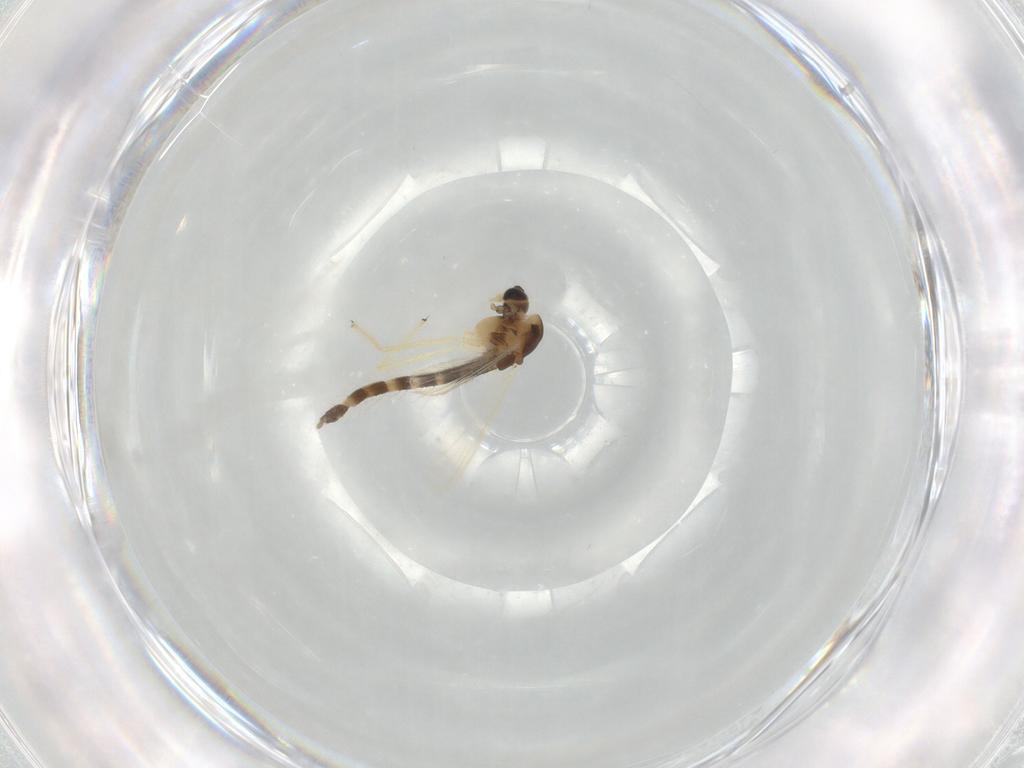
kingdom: Animalia
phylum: Arthropoda
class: Insecta
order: Diptera
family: Chironomidae
